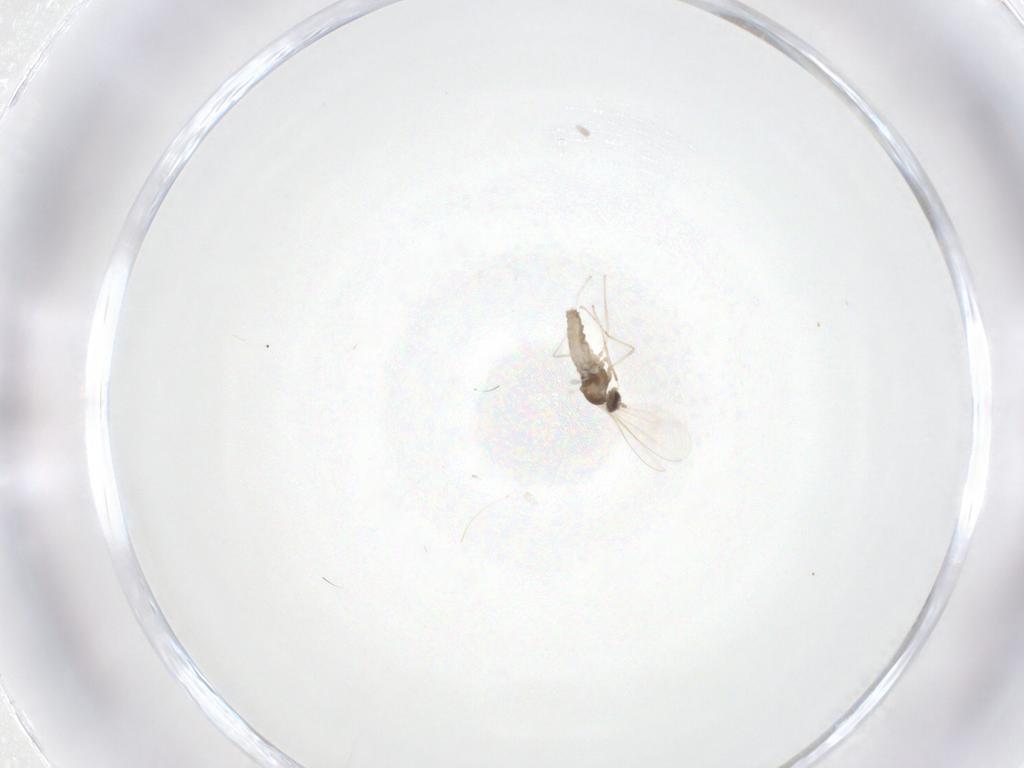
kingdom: Animalia
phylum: Arthropoda
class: Insecta
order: Diptera
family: Cecidomyiidae
